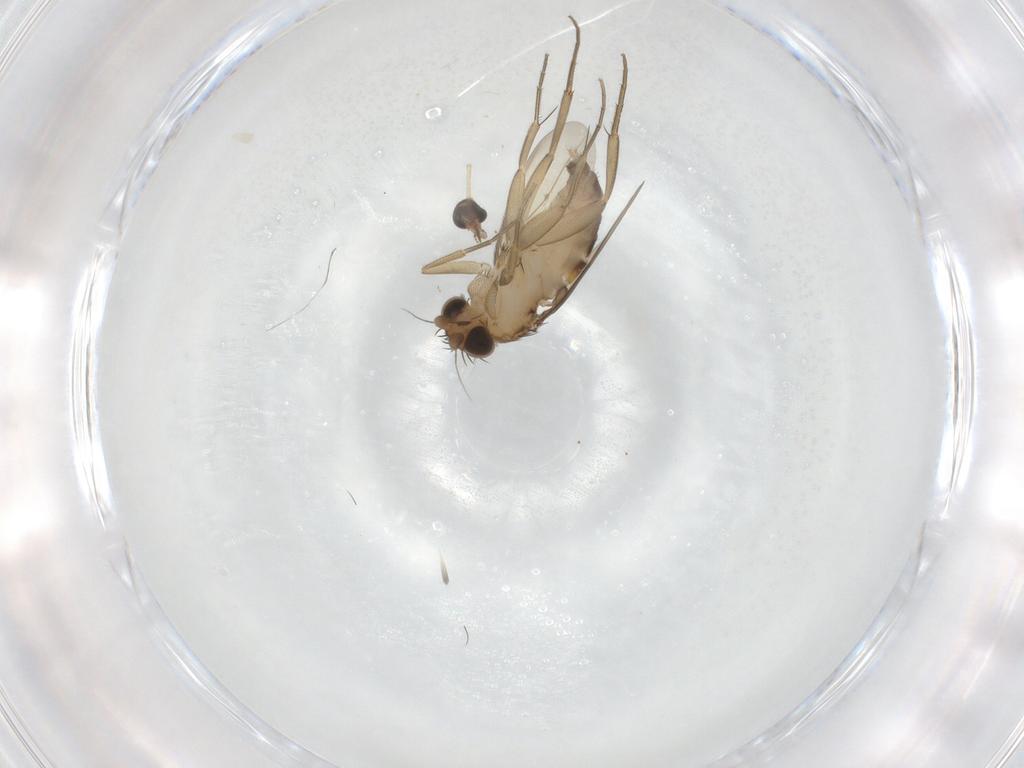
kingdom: Animalia
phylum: Arthropoda
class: Insecta
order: Diptera
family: Phoridae
